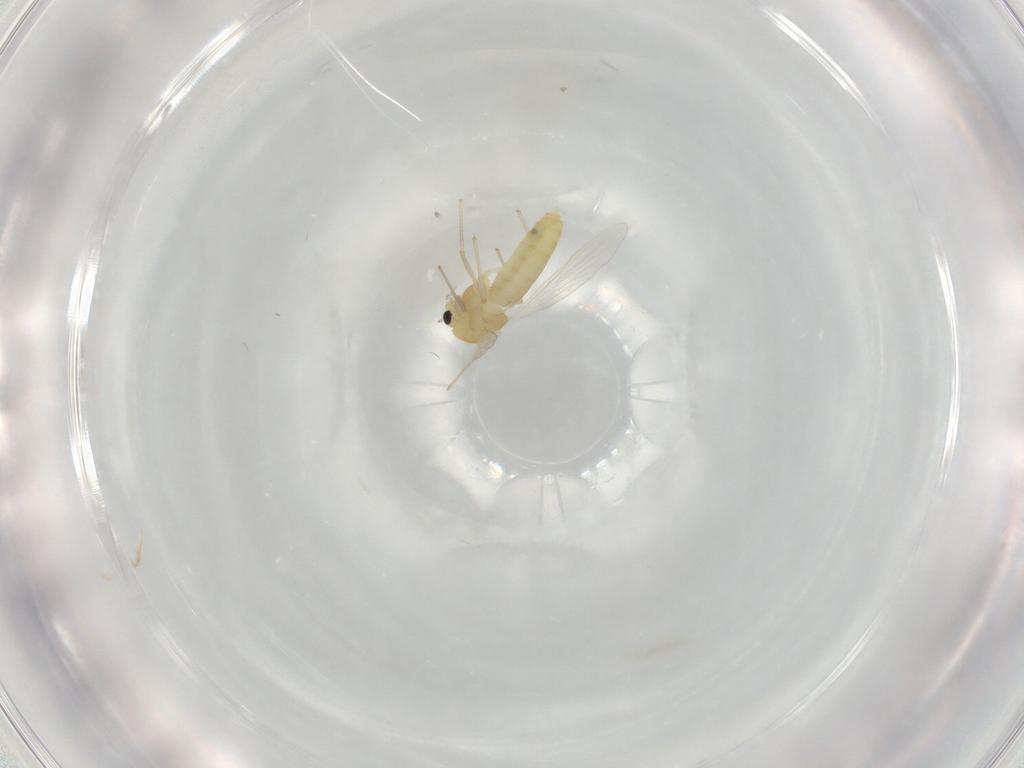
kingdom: Animalia
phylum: Arthropoda
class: Insecta
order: Diptera
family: Chironomidae
